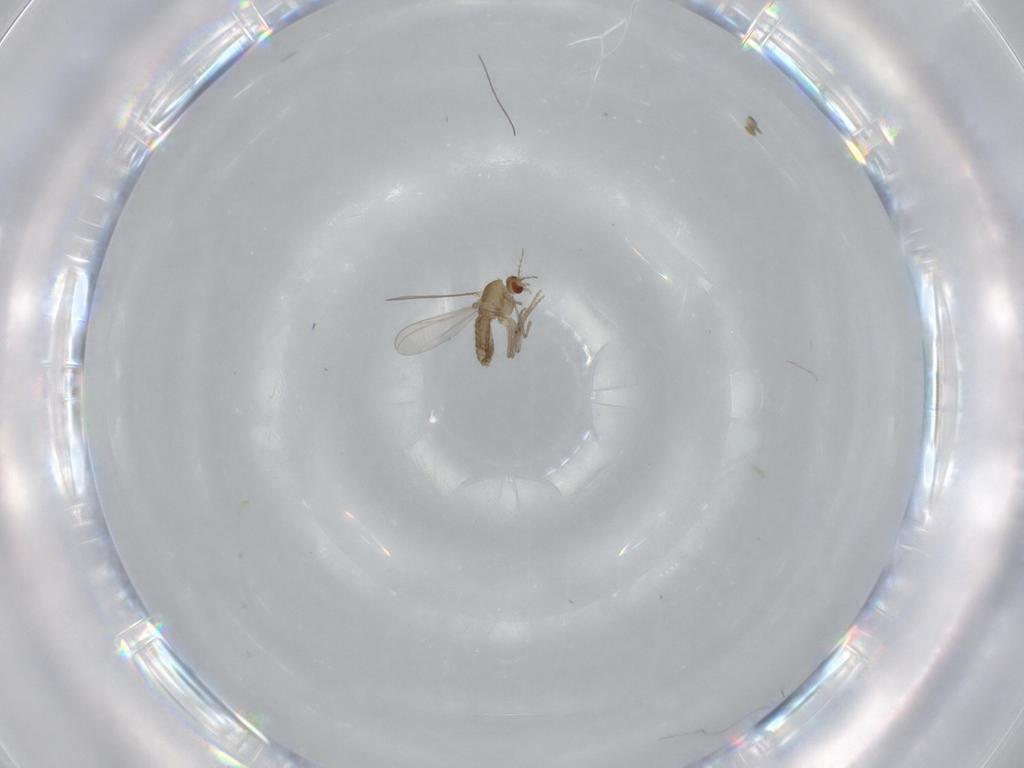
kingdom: Animalia
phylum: Arthropoda
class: Insecta
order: Diptera
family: Chironomidae
